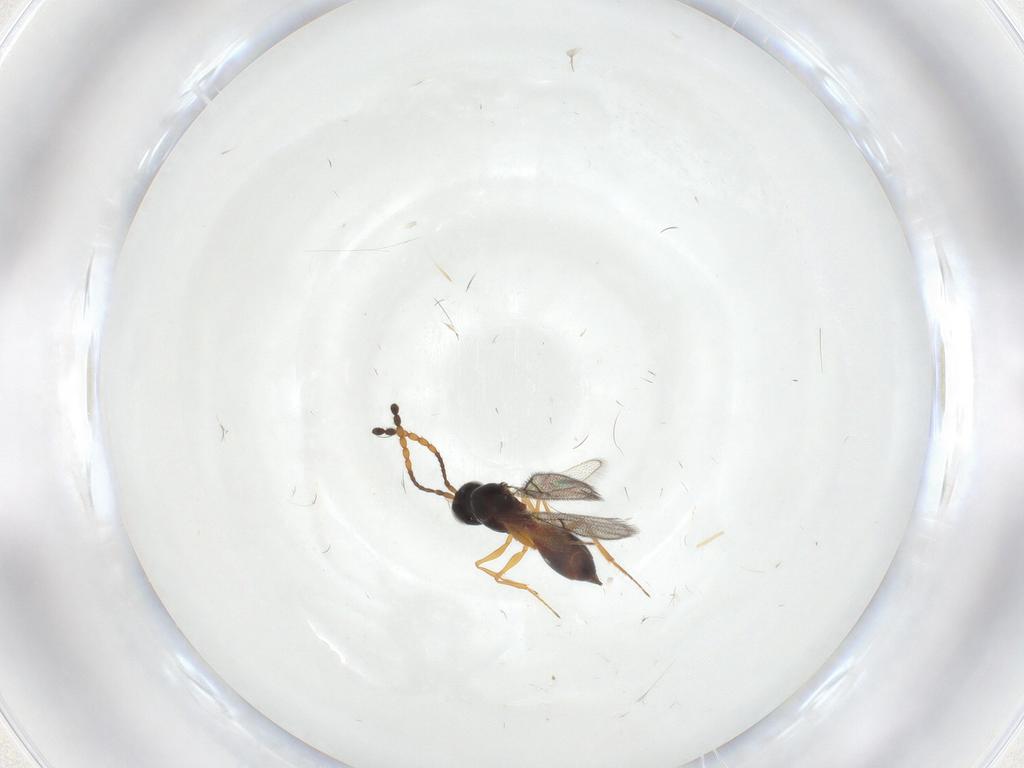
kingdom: Animalia
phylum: Arthropoda
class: Insecta
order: Hymenoptera
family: Figitidae
